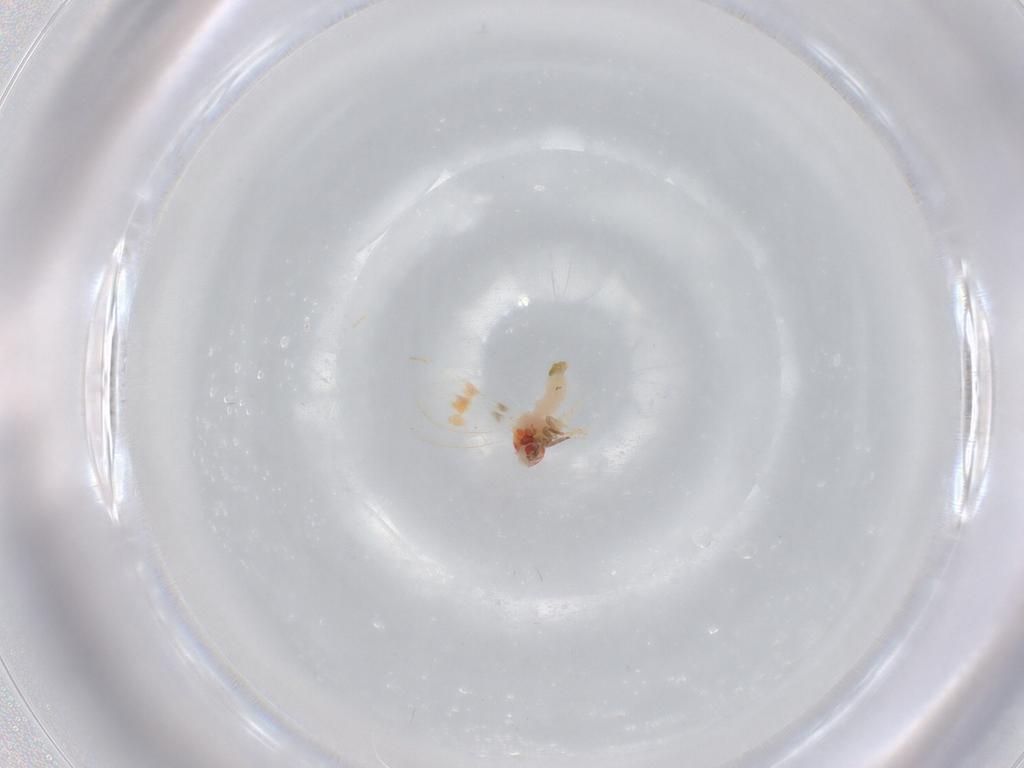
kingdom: Animalia
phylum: Arthropoda
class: Insecta
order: Hemiptera
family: Aleyrodidae
